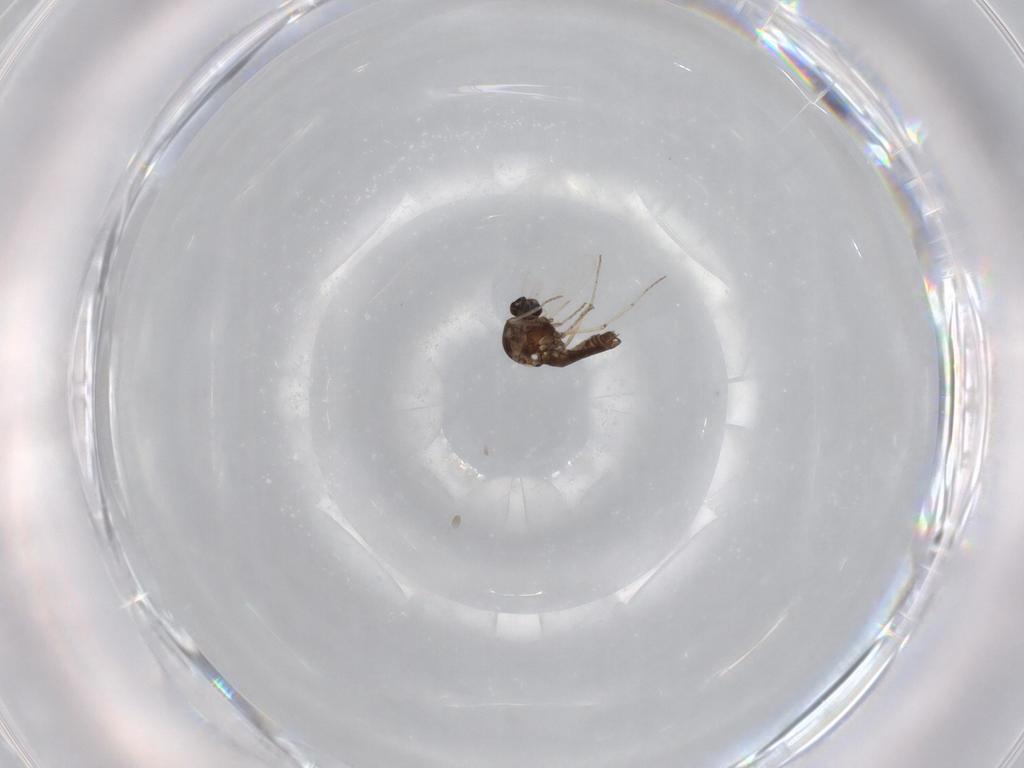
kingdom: Animalia
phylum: Arthropoda
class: Insecta
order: Diptera
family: Ceratopogonidae
